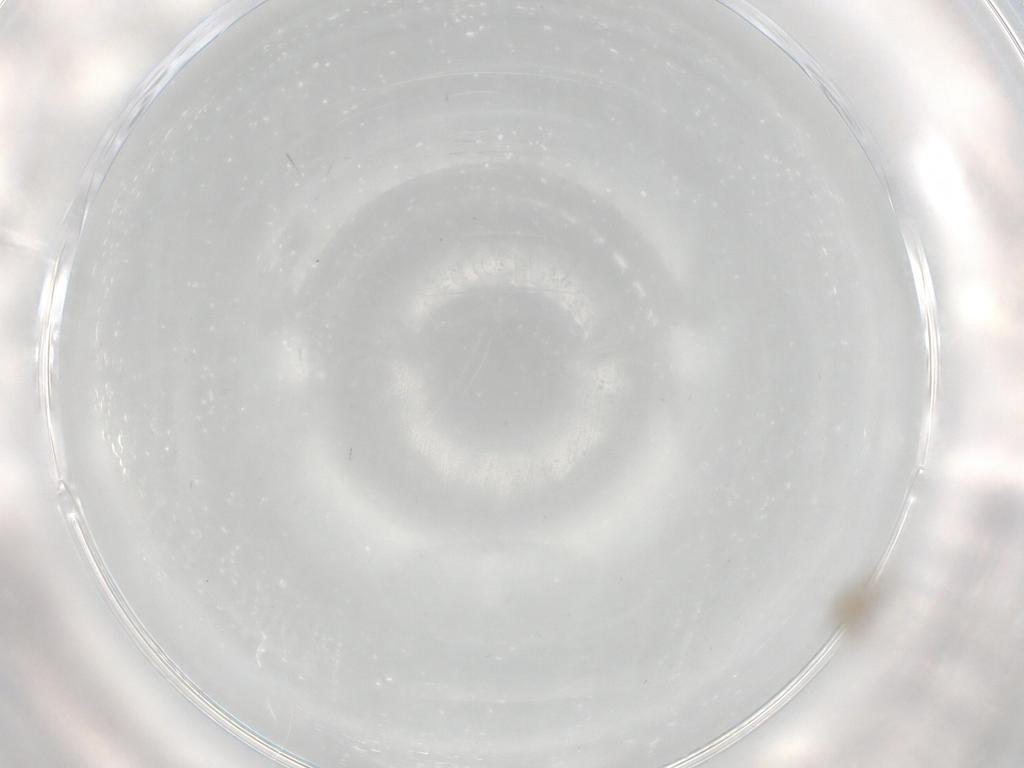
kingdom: Animalia
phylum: Arthropoda
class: Insecta
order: Diptera
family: Cecidomyiidae
